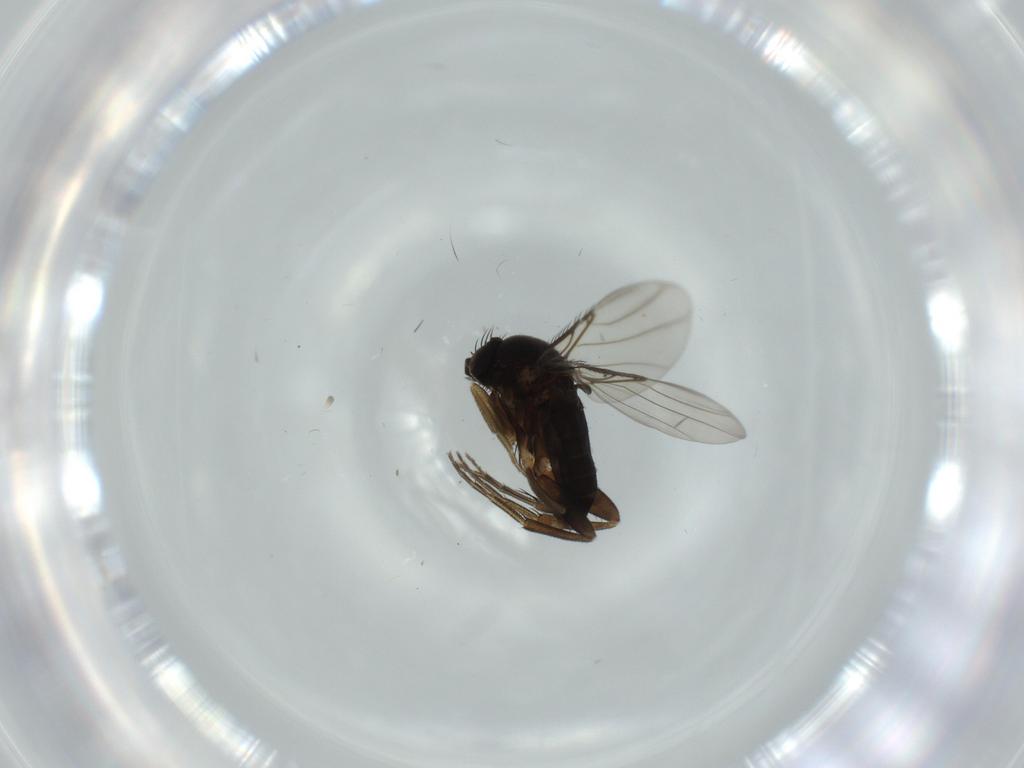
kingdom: Animalia
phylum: Arthropoda
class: Insecta
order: Diptera
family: Phoridae
